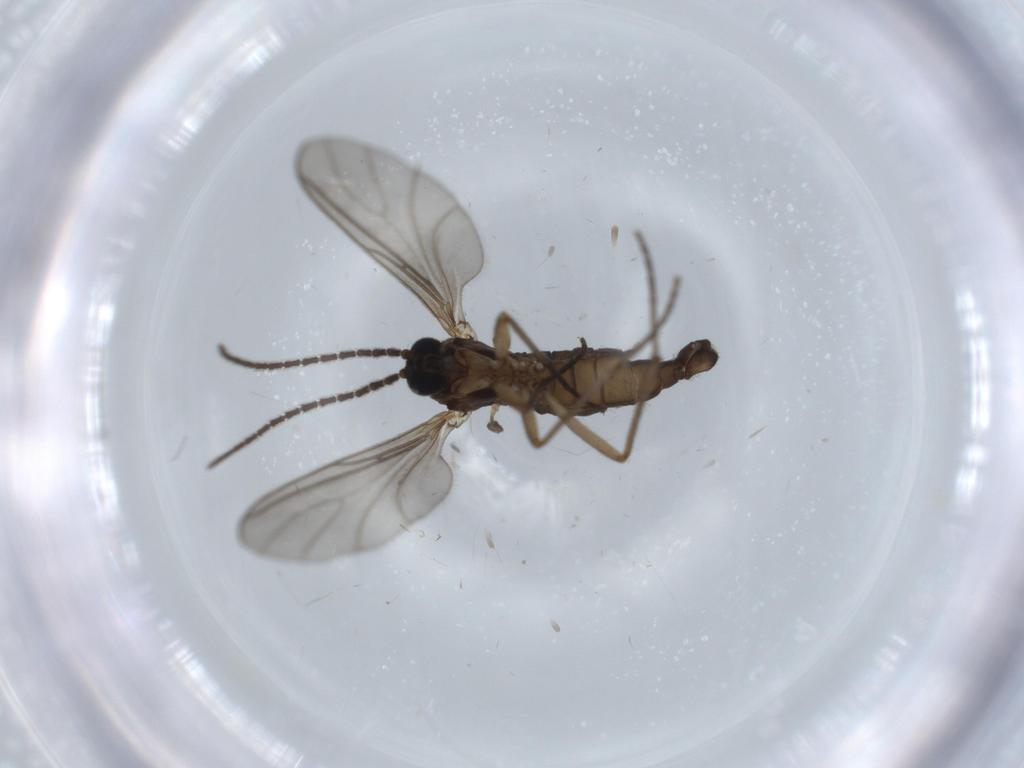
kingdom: Animalia
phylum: Arthropoda
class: Insecta
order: Diptera
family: Sciaridae
